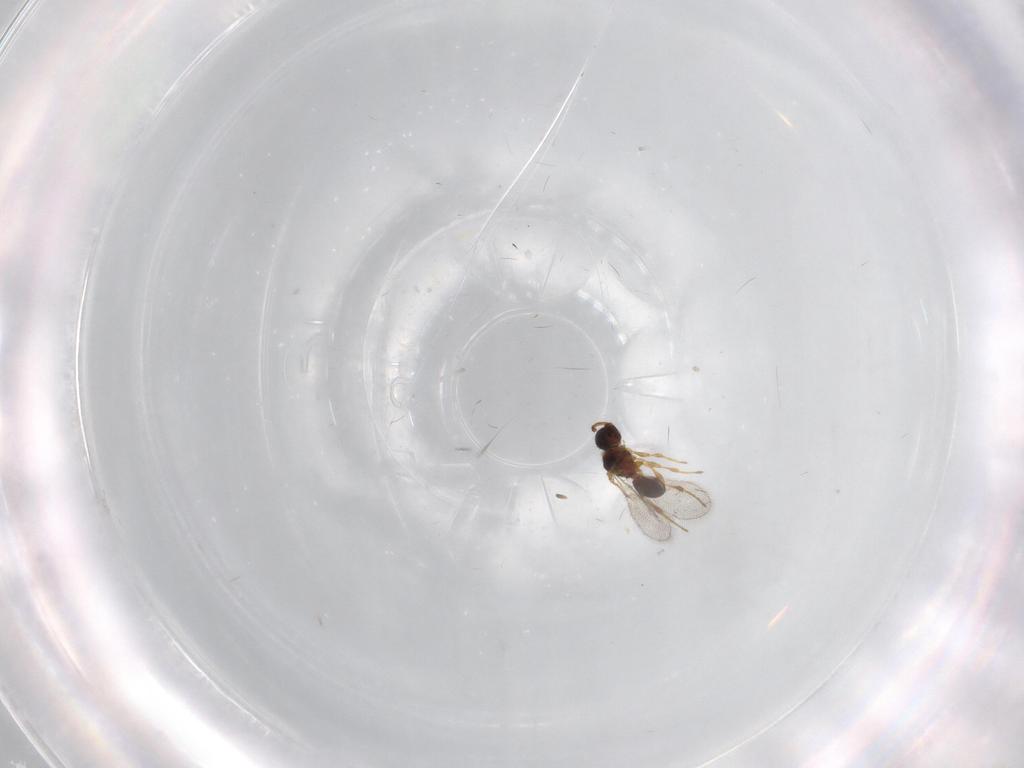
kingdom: Animalia
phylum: Arthropoda
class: Insecta
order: Hymenoptera
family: Diapriidae
